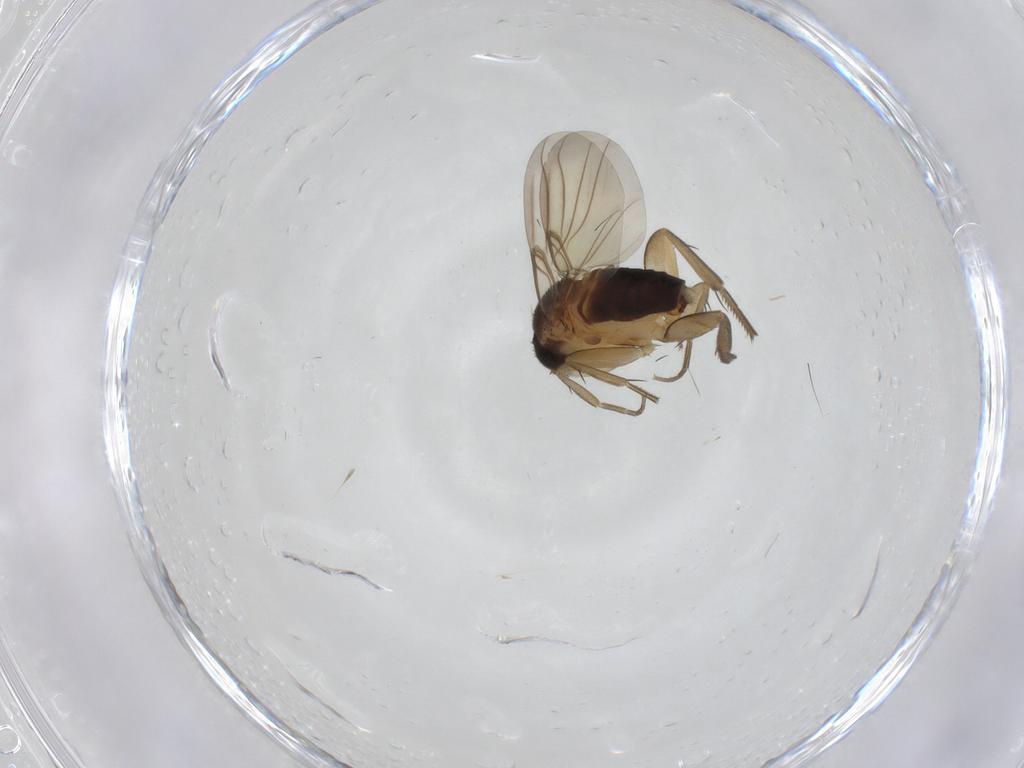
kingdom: Animalia
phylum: Arthropoda
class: Insecta
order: Diptera
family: Phoridae
